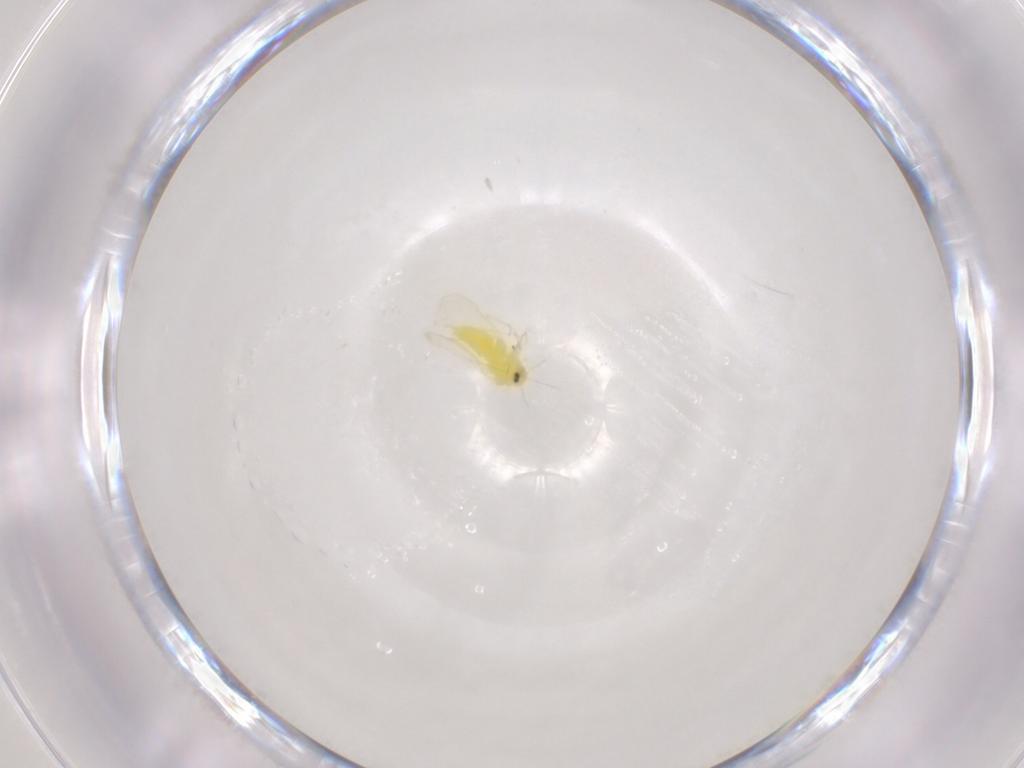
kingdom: Animalia
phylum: Arthropoda
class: Insecta
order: Hemiptera
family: Aleyrodidae
